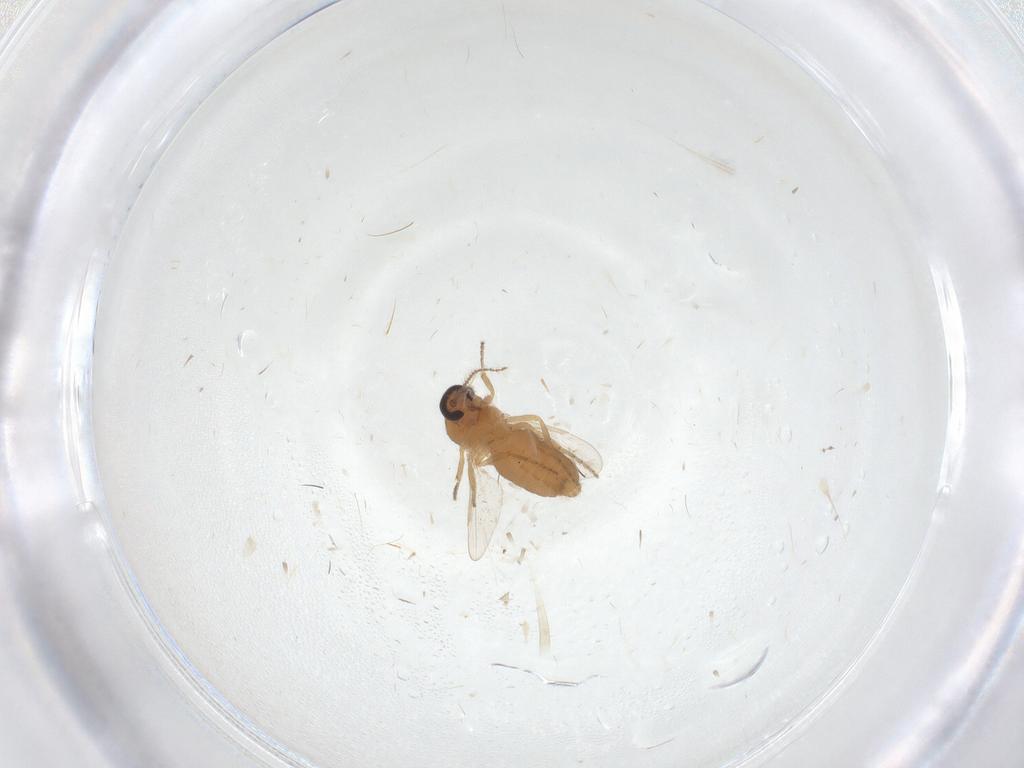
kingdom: Animalia
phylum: Arthropoda
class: Insecta
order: Diptera
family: Ceratopogonidae
